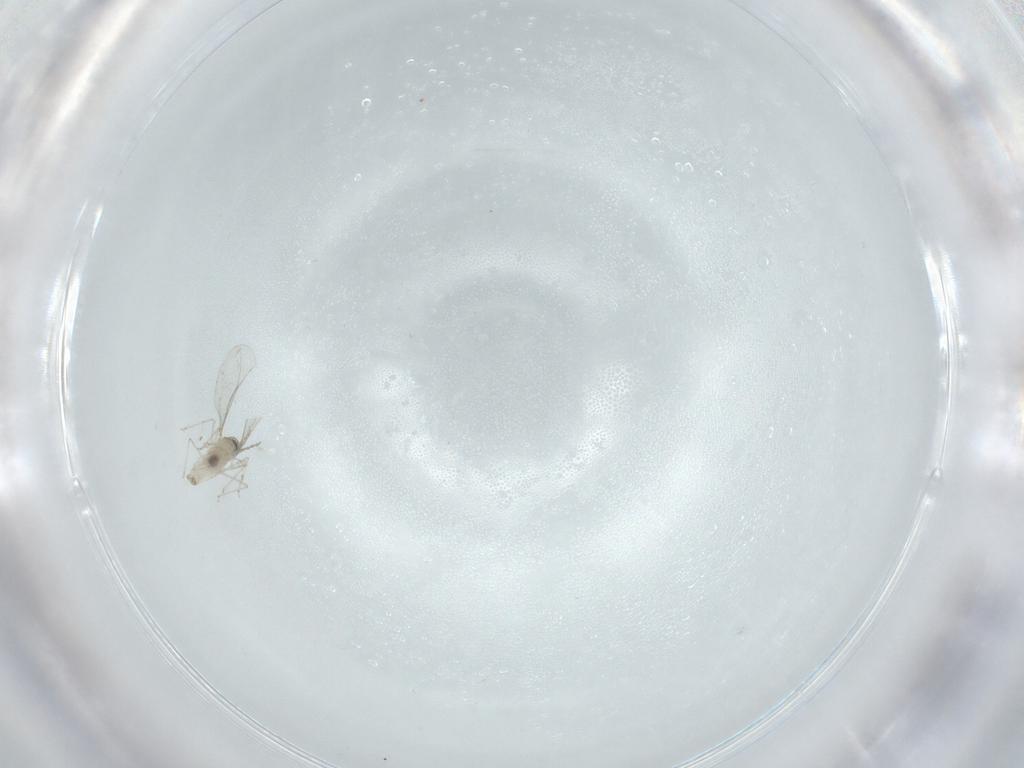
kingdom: Animalia
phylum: Arthropoda
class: Insecta
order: Diptera
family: Cecidomyiidae
